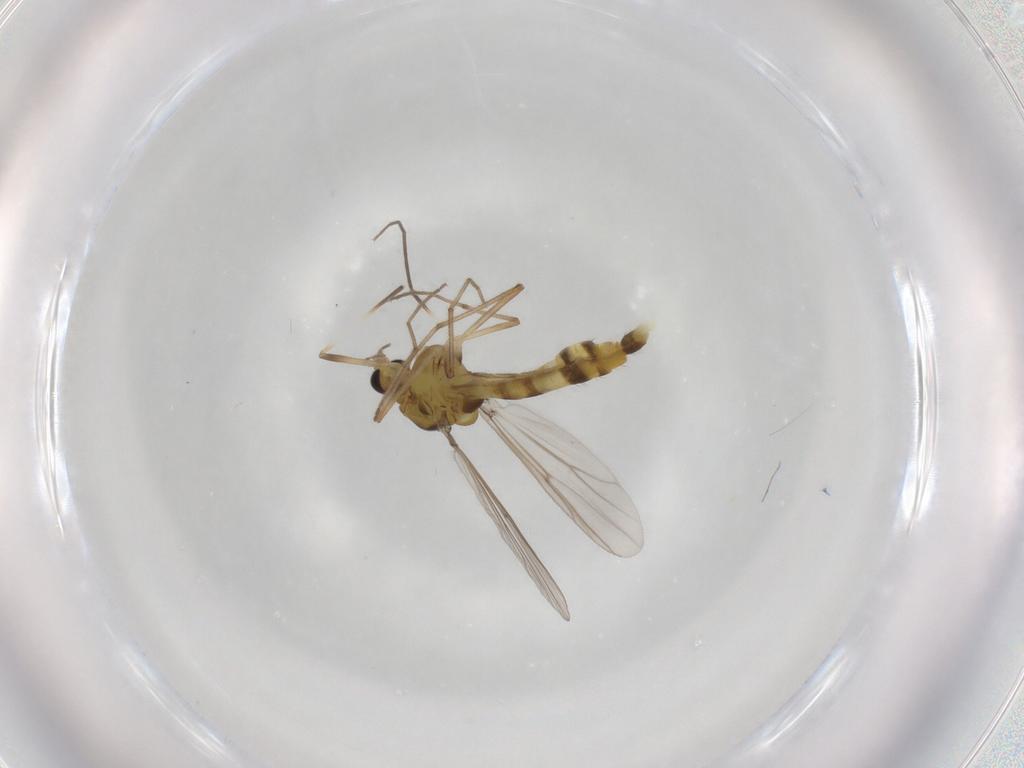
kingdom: Animalia
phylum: Arthropoda
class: Insecta
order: Diptera
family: Chironomidae
